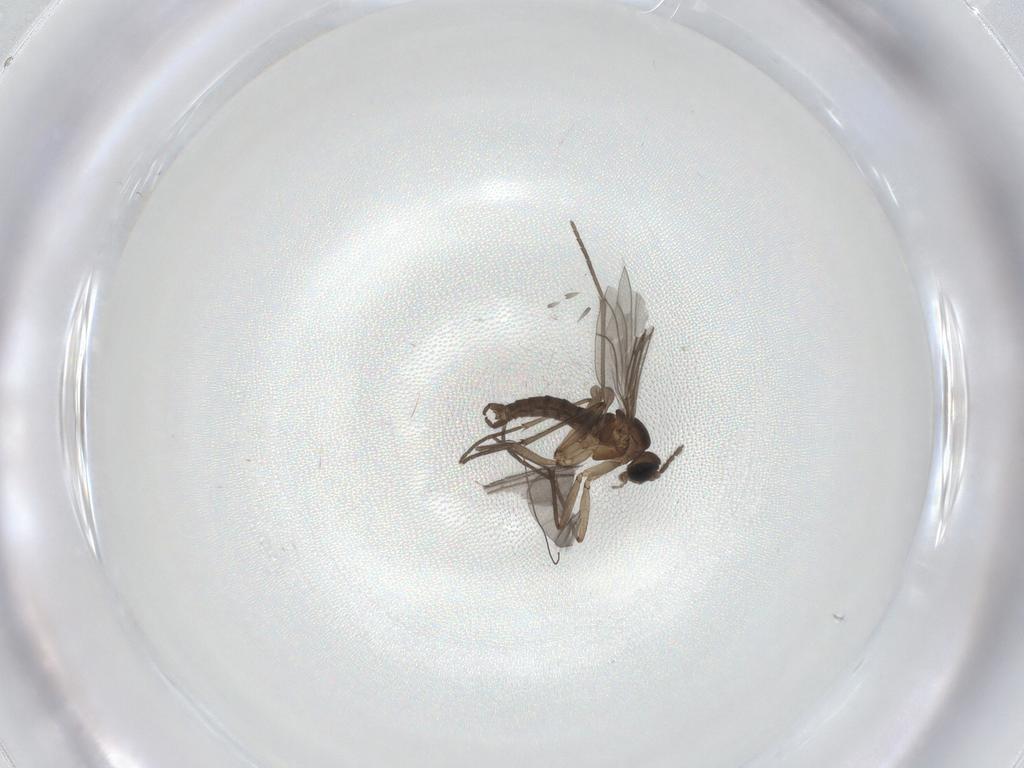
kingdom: Animalia
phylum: Arthropoda
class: Insecta
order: Diptera
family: Sciaridae
